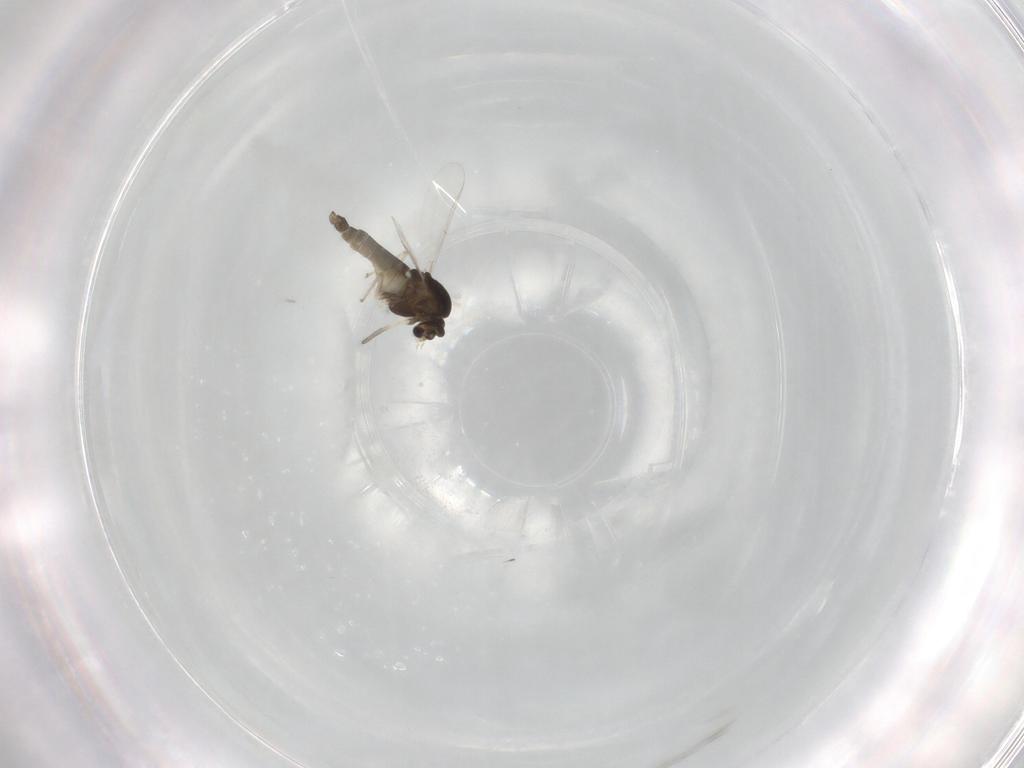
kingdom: Animalia
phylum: Arthropoda
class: Insecta
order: Diptera
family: Chironomidae
